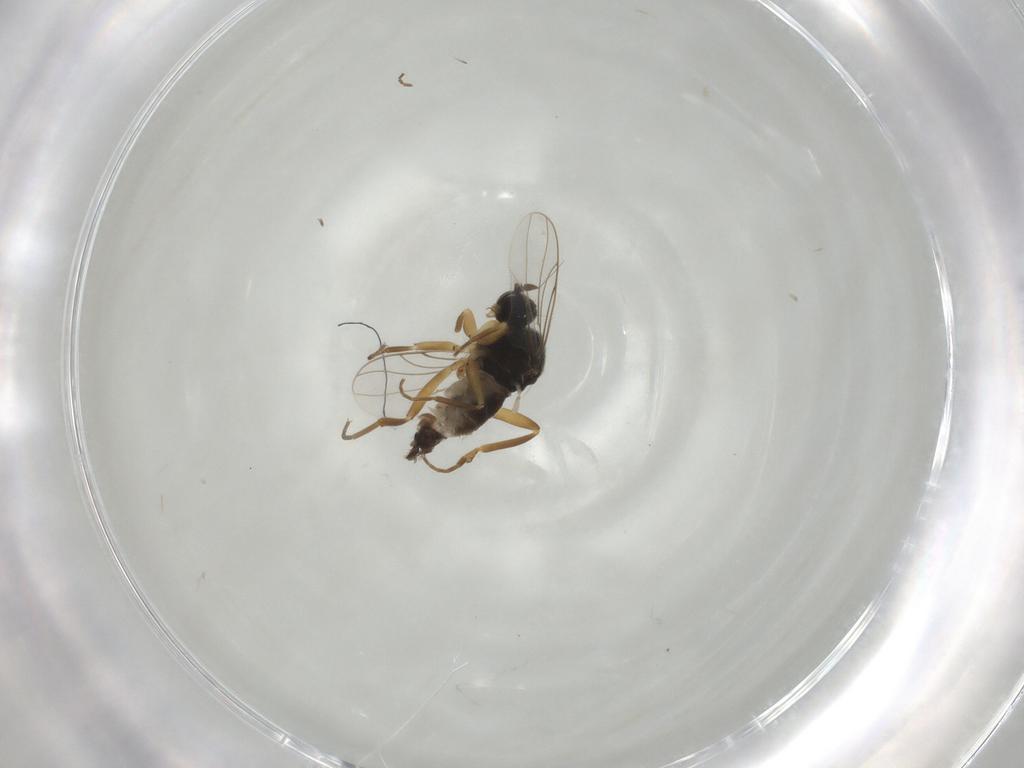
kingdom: Animalia
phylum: Arthropoda
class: Insecta
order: Diptera
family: Hybotidae
